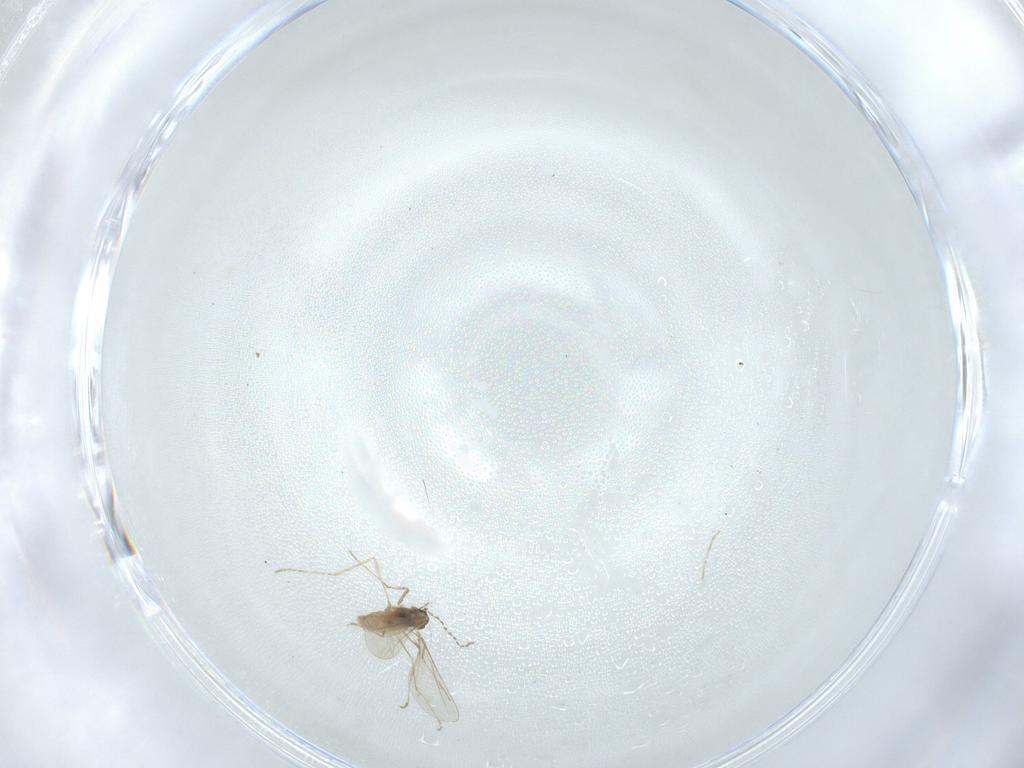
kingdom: Animalia
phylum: Arthropoda
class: Insecta
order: Diptera
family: Cecidomyiidae
